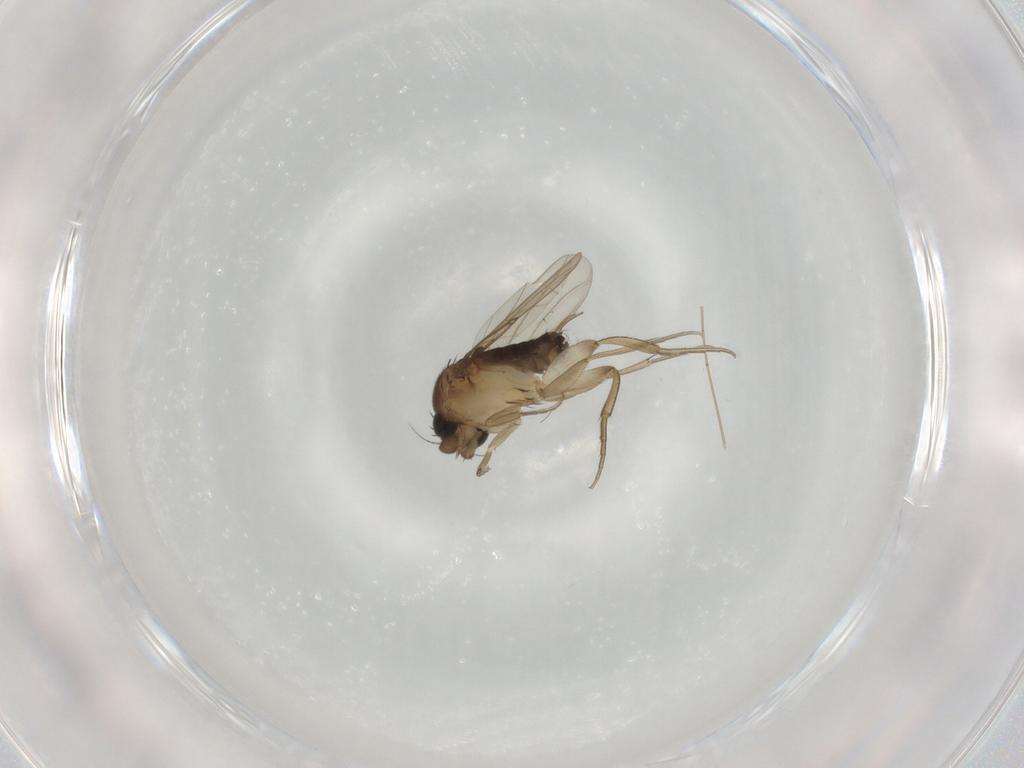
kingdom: Animalia
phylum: Arthropoda
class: Insecta
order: Diptera
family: Phoridae
